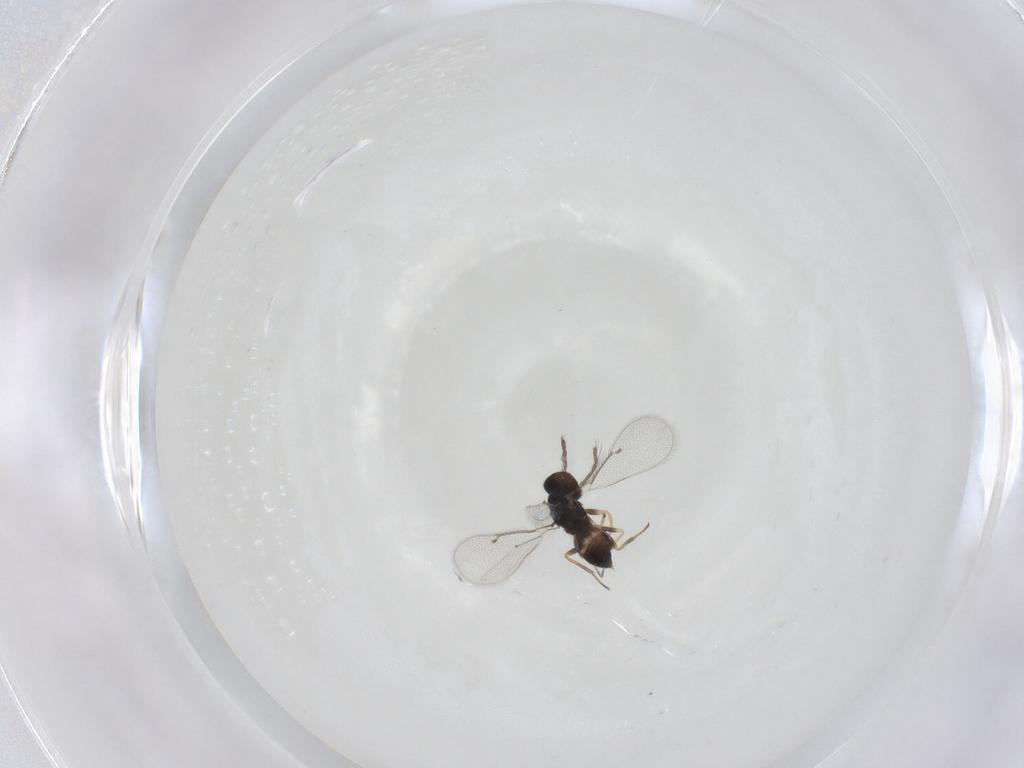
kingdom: Animalia
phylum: Arthropoda
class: Insecta
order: Hymenoptera
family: Eulophidae
